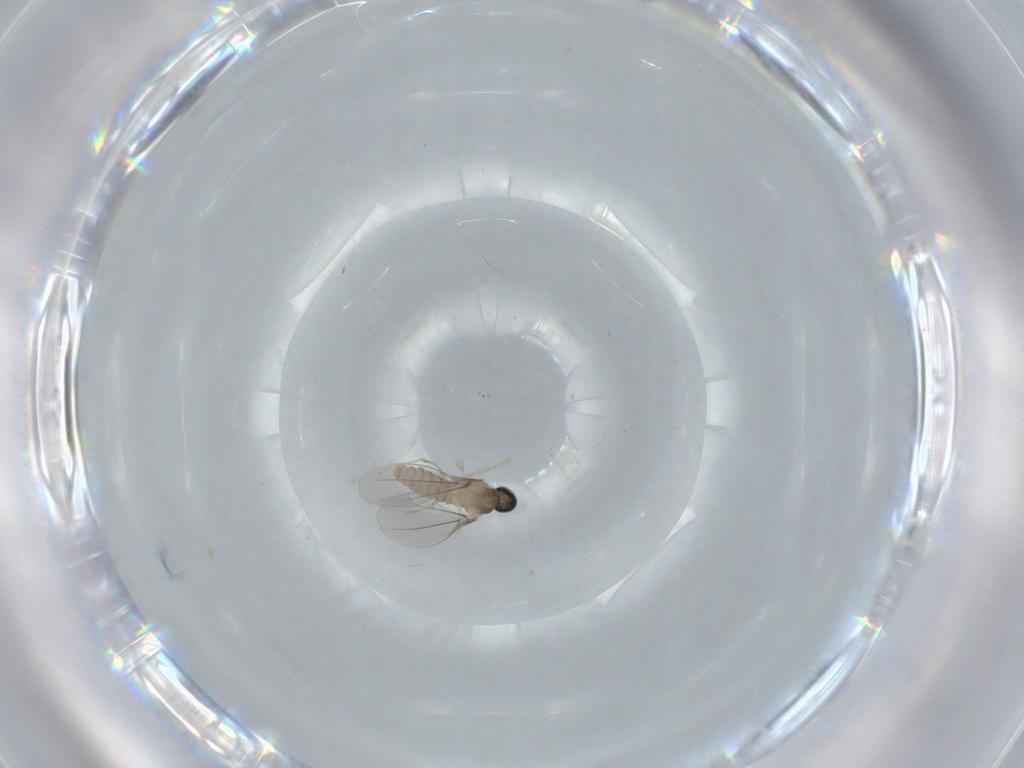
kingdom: Animalia
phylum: Arthropoda
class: Insecta
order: Diptera
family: Cecidomyiidae
